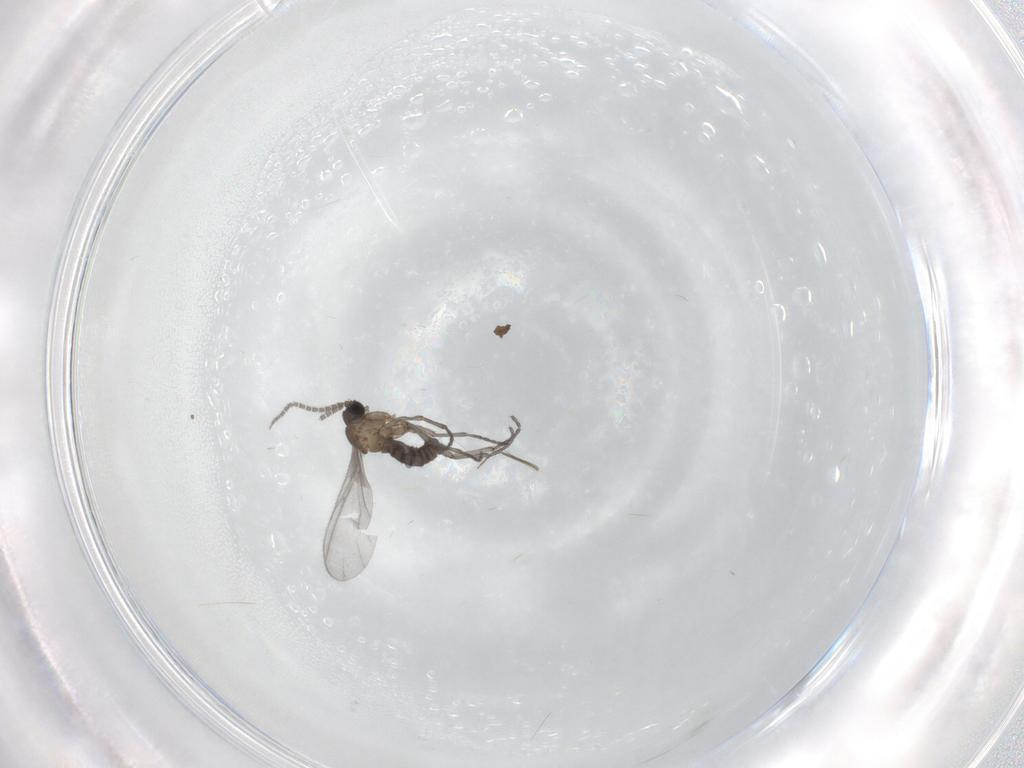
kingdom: Animalia
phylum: Arthropoda
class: Insecta
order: Diptera
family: Sciaridae
